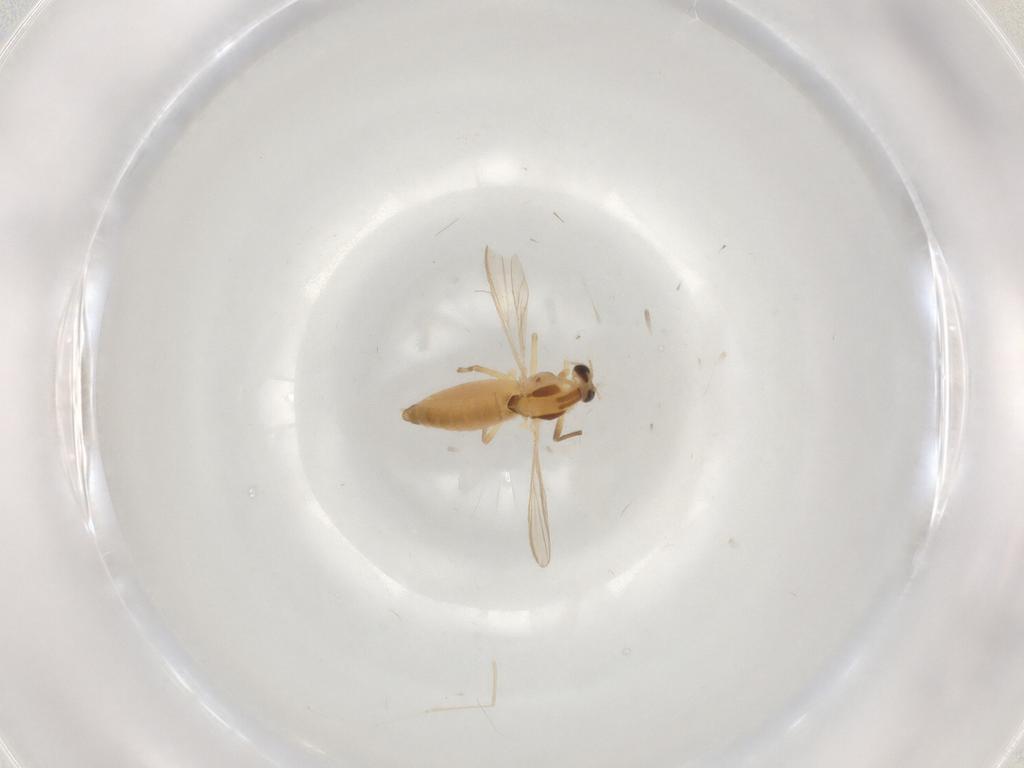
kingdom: Animalia
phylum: Arthropoda
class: Insecta
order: Diptera
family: Chironomidae
